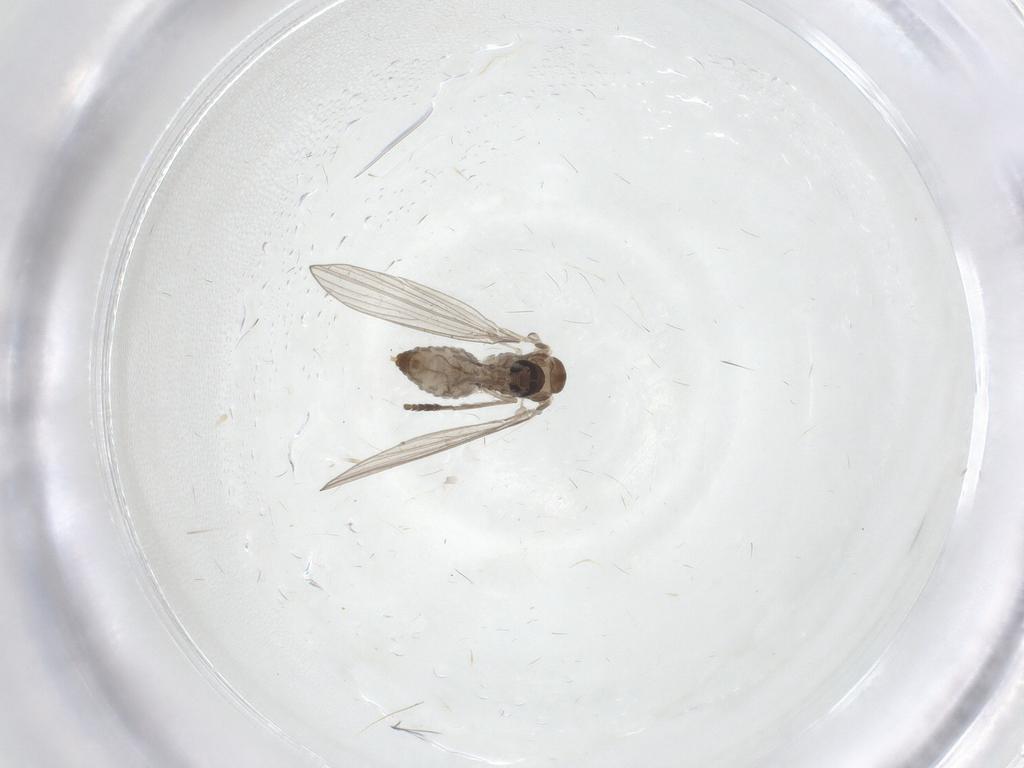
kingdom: Animalia
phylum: Arthropoda
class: Insecta
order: Diptera
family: Psychodidae
